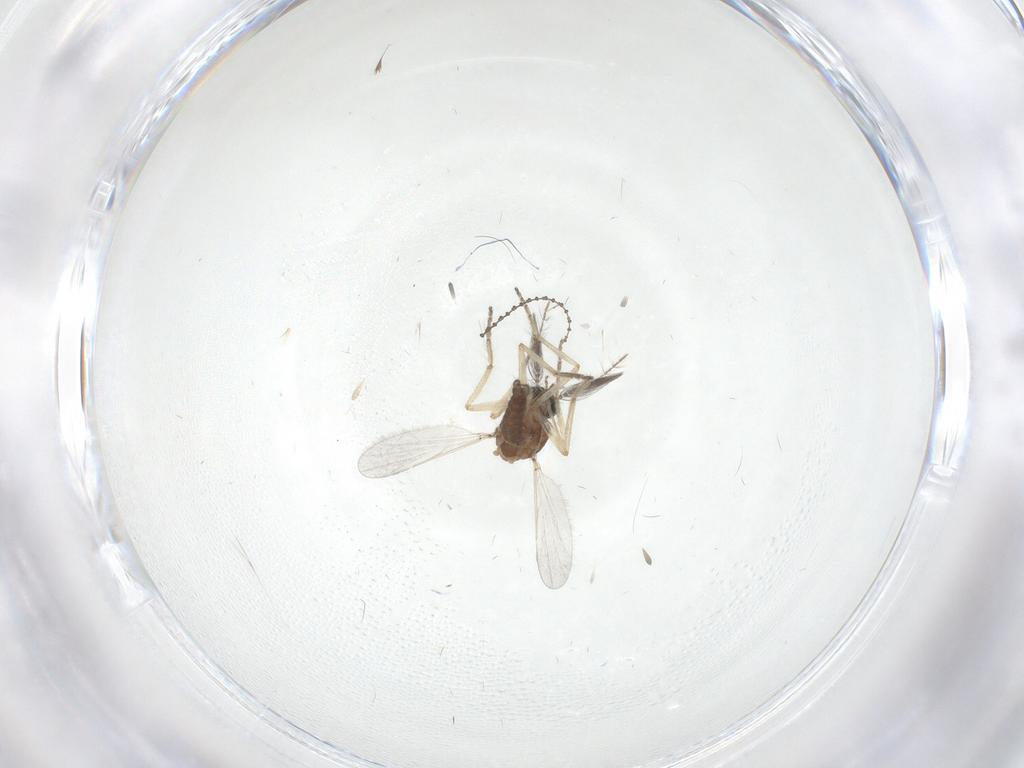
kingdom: Animalia
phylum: Arthropoda
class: Insecta
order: Diptera
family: Ceratopogonidae
